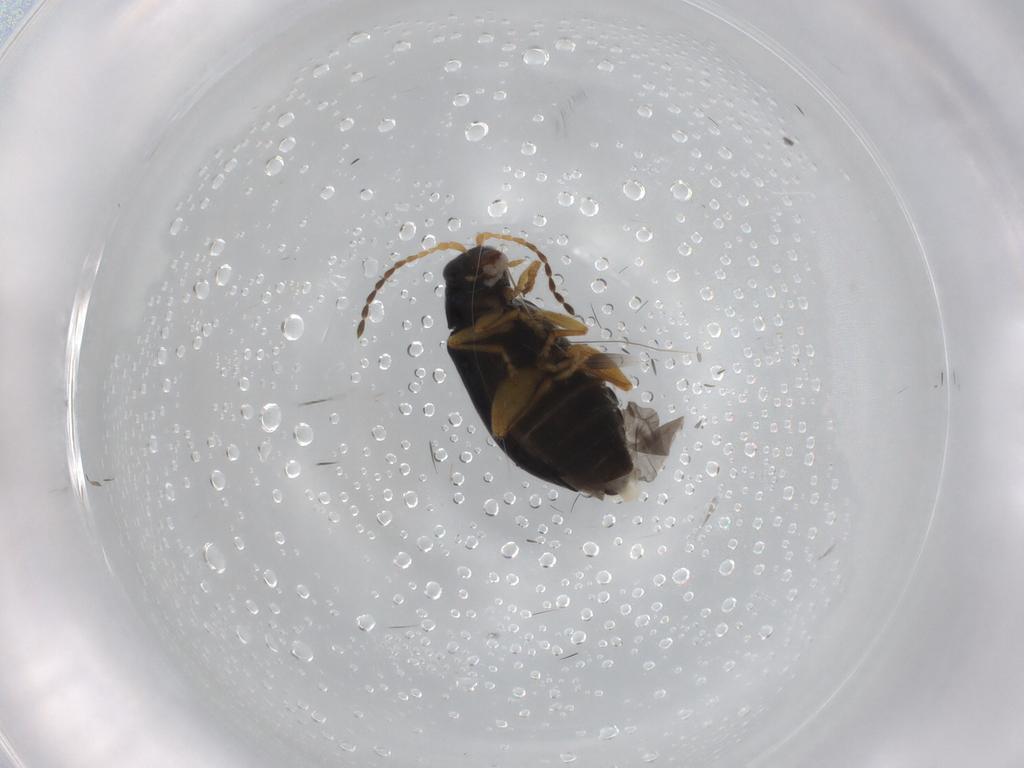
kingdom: Animalia
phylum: Arthropoda
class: Insecta
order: Coleoptera
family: Chrysomelidae
